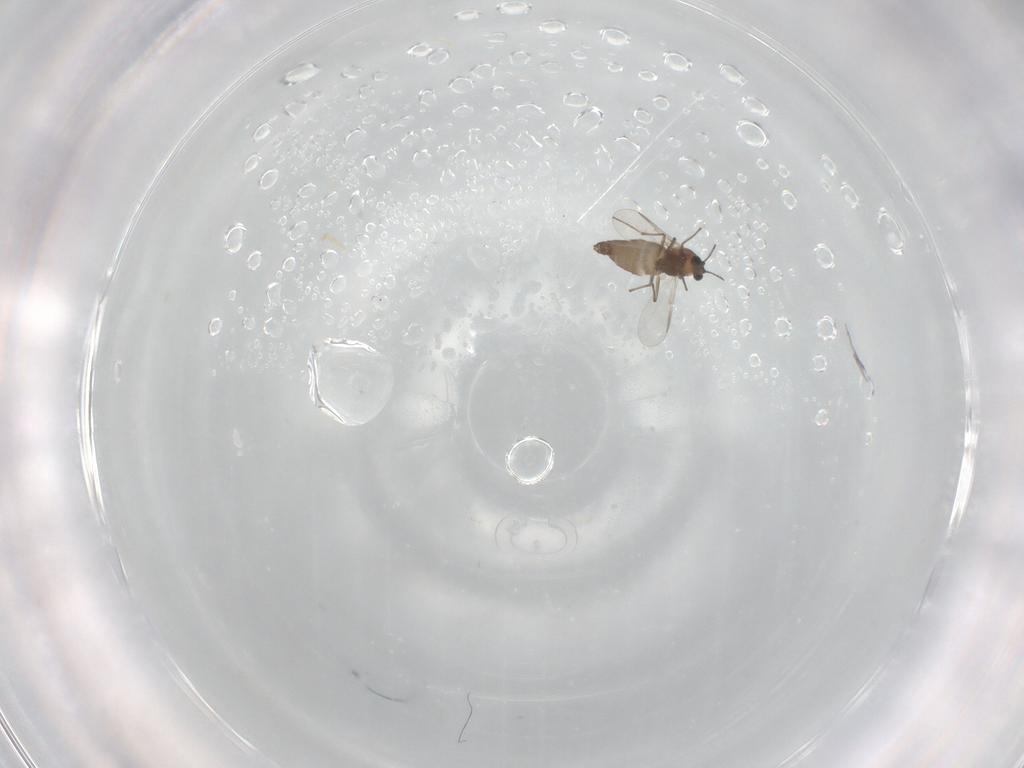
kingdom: Animalia
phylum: Arthropoda
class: Insecta
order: Diptera
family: Chironomidae
